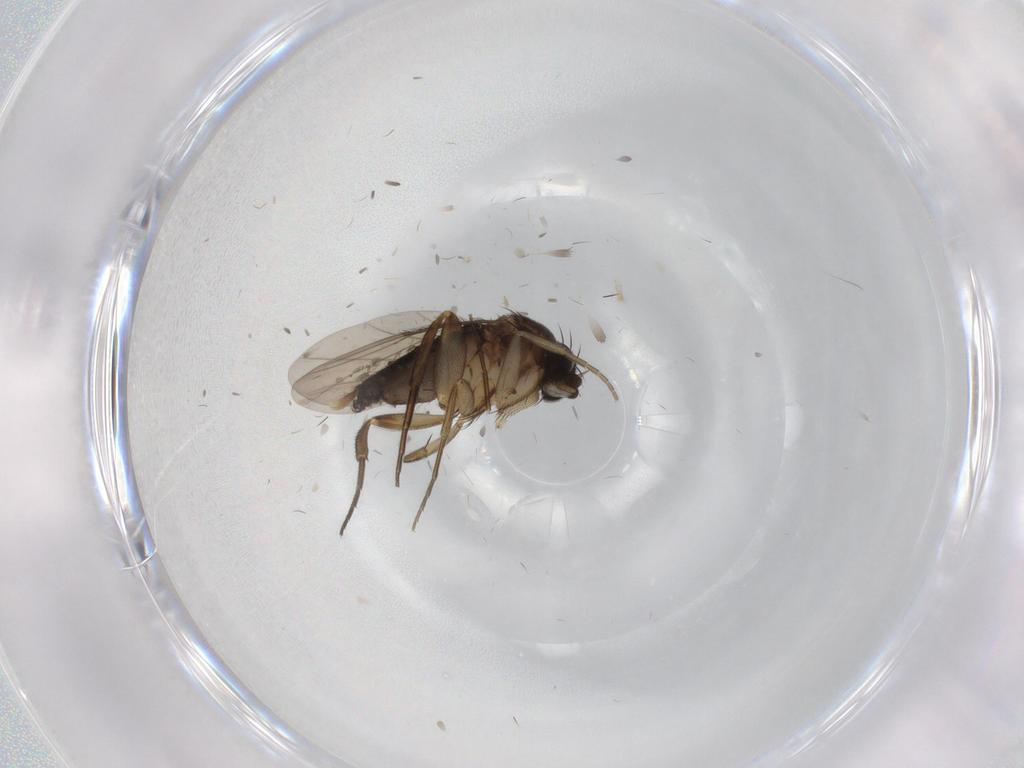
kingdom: Animalia
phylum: Arthropoda
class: Insecta
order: Diptera
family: Phoridae
